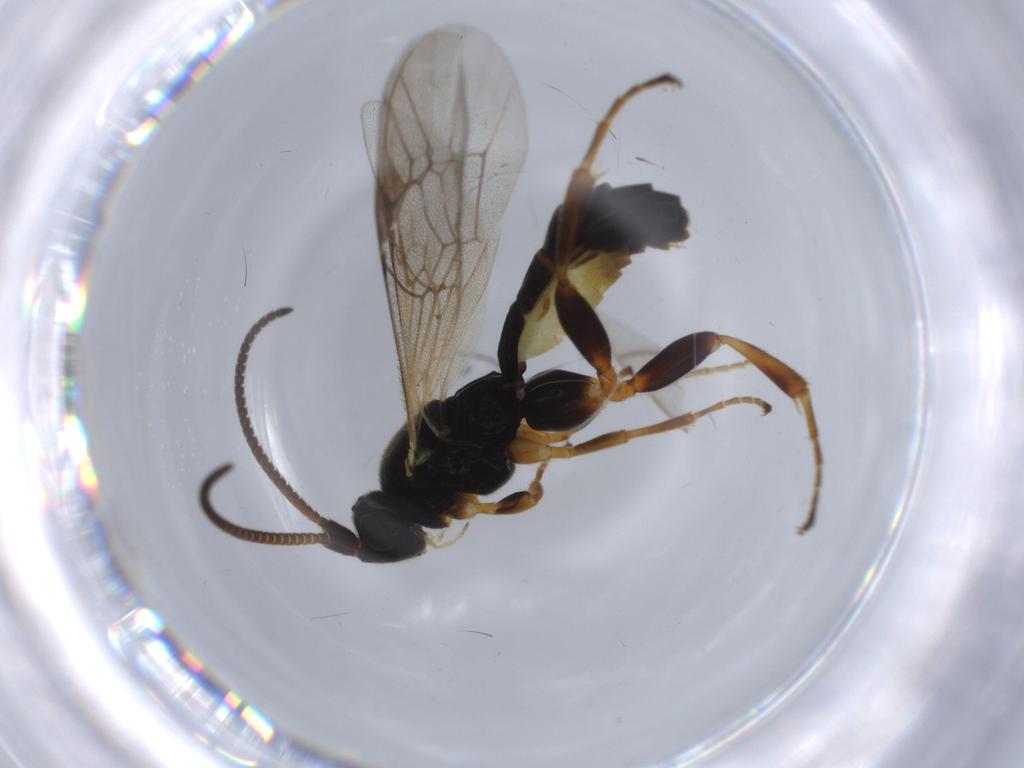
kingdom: Animalia
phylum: Arthropoda
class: Insecta
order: Hymenoptera
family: Ichneumonidae
